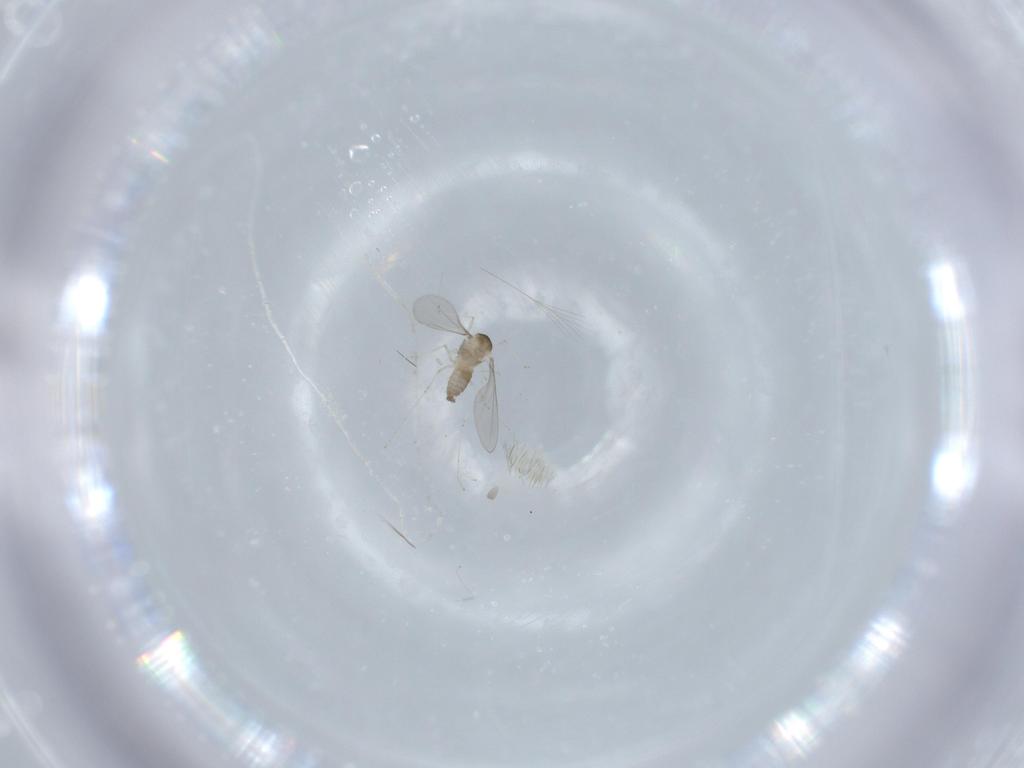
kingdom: Animalia
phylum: Arthropoda
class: Insecta
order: Diptera
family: Cecidomyiidae
